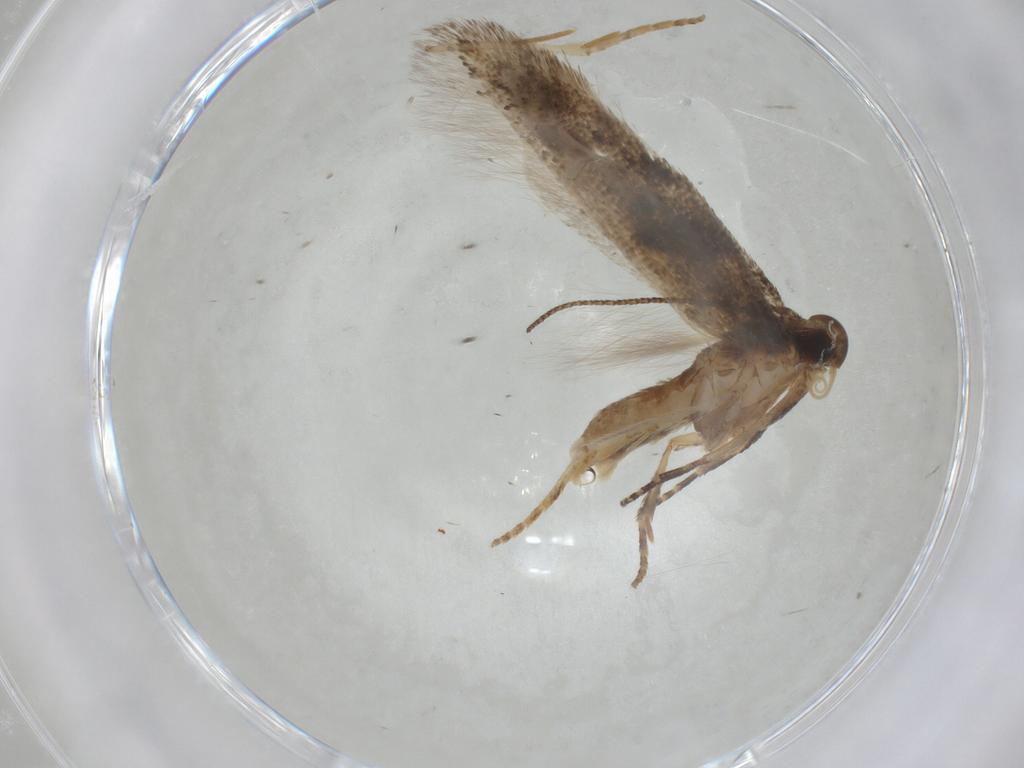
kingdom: Animalia
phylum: Arthropoda
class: Insecta
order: Lepidoptera
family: Gelechiidae
